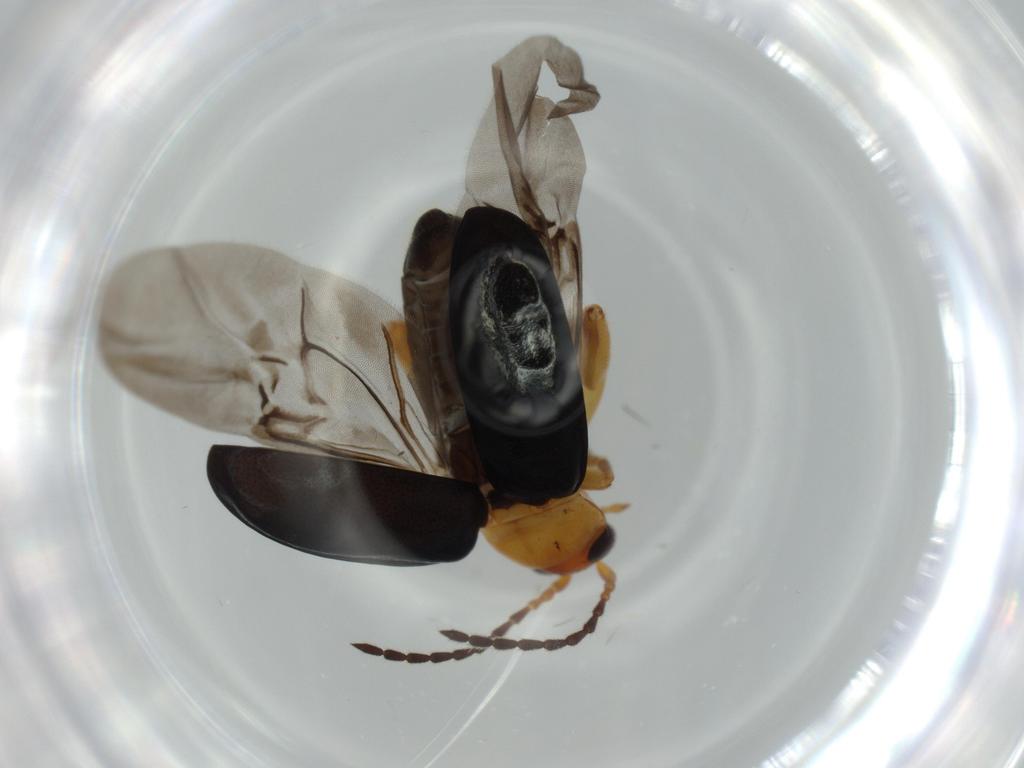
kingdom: Animalia
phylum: Arthropoda
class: Insecta
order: Coleoptera
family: Chrysomelidae
